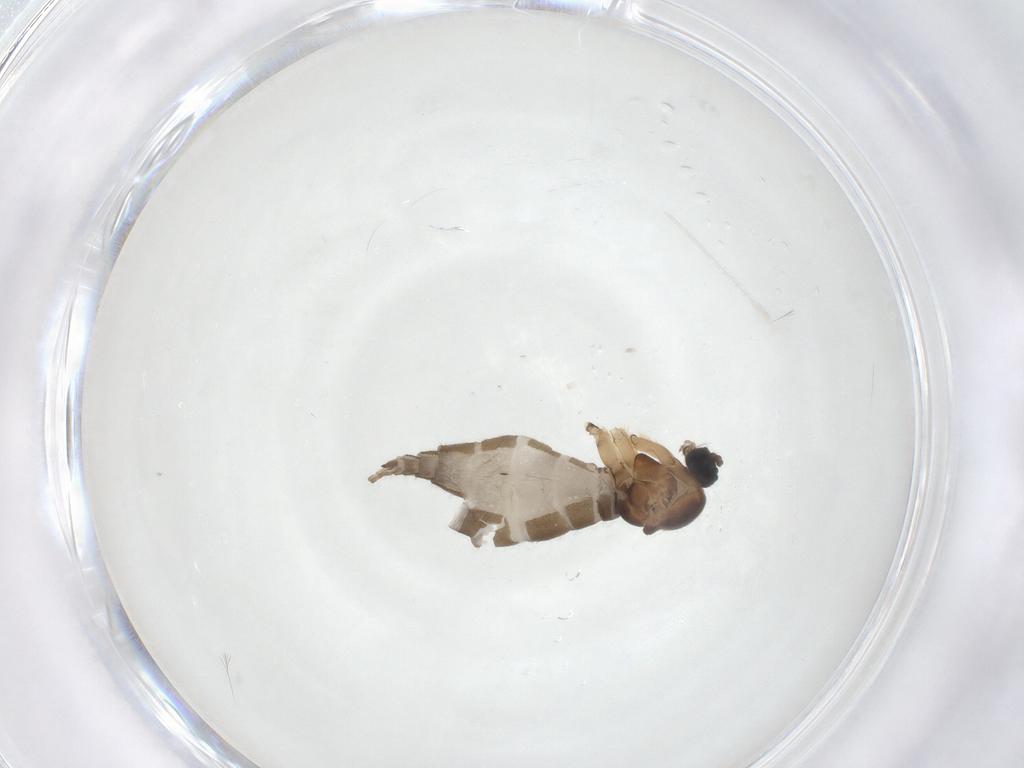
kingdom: Animalia
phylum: Arthropoda
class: Insecta
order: Diptera
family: Sciaridae
